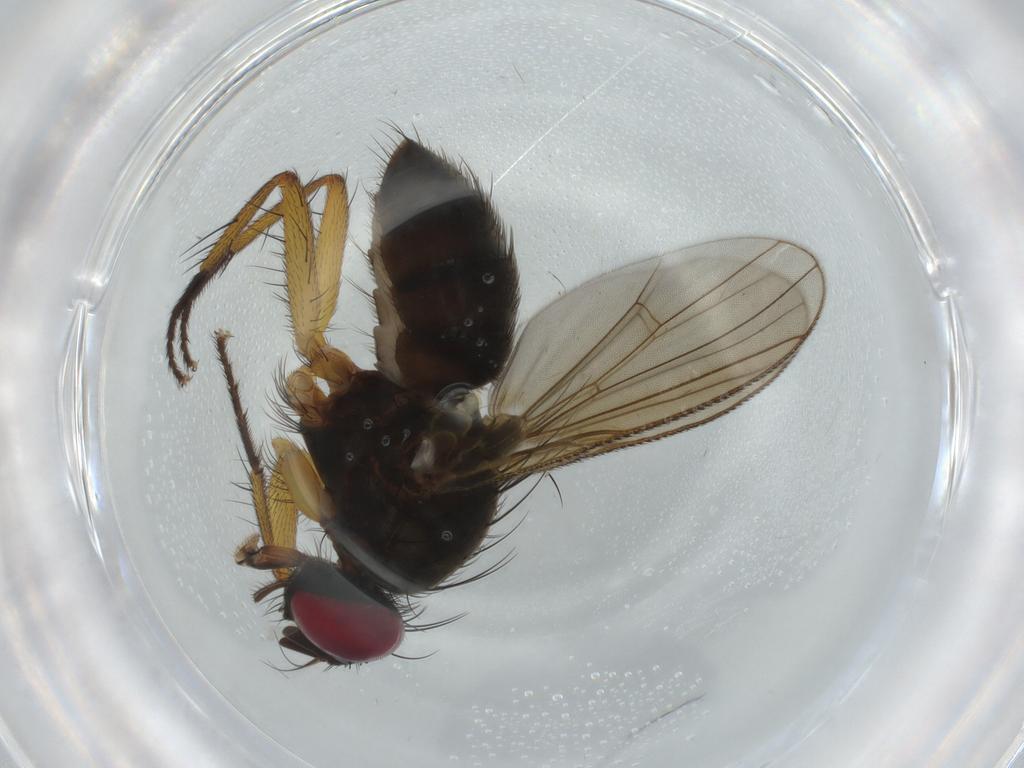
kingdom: Animalia
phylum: Arthropoda
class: Insecta
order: Diptera
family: Muscidae
